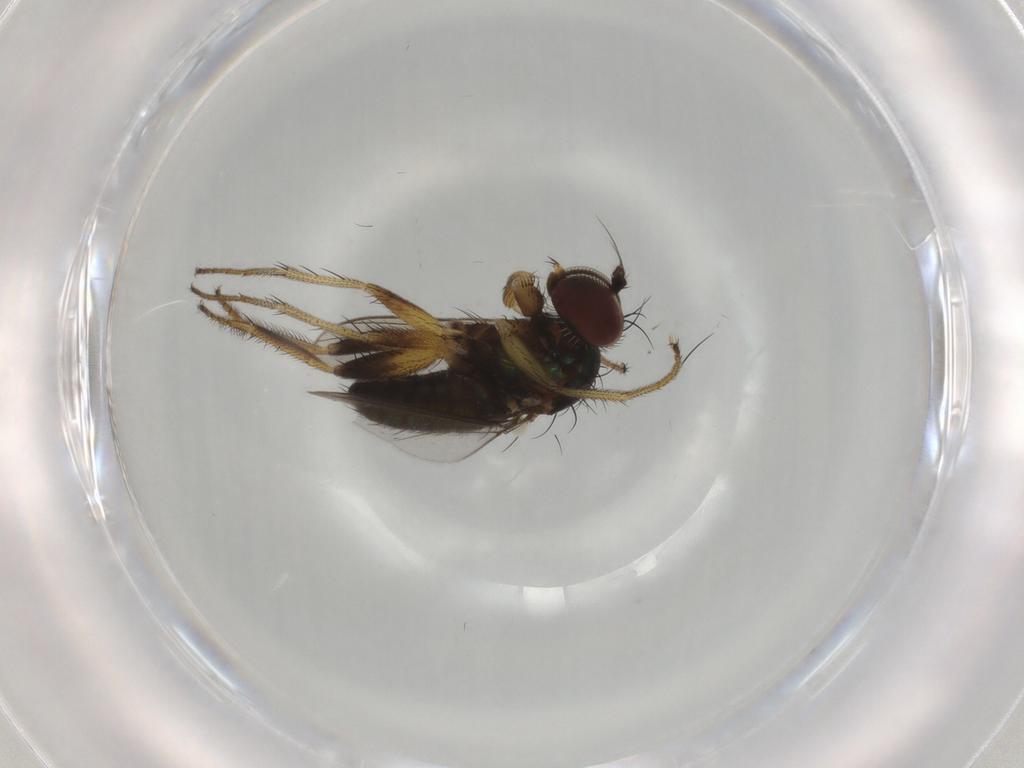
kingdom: Animalia
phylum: Arthropoda
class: Insecta
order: Diptera
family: Dolichopodidae
